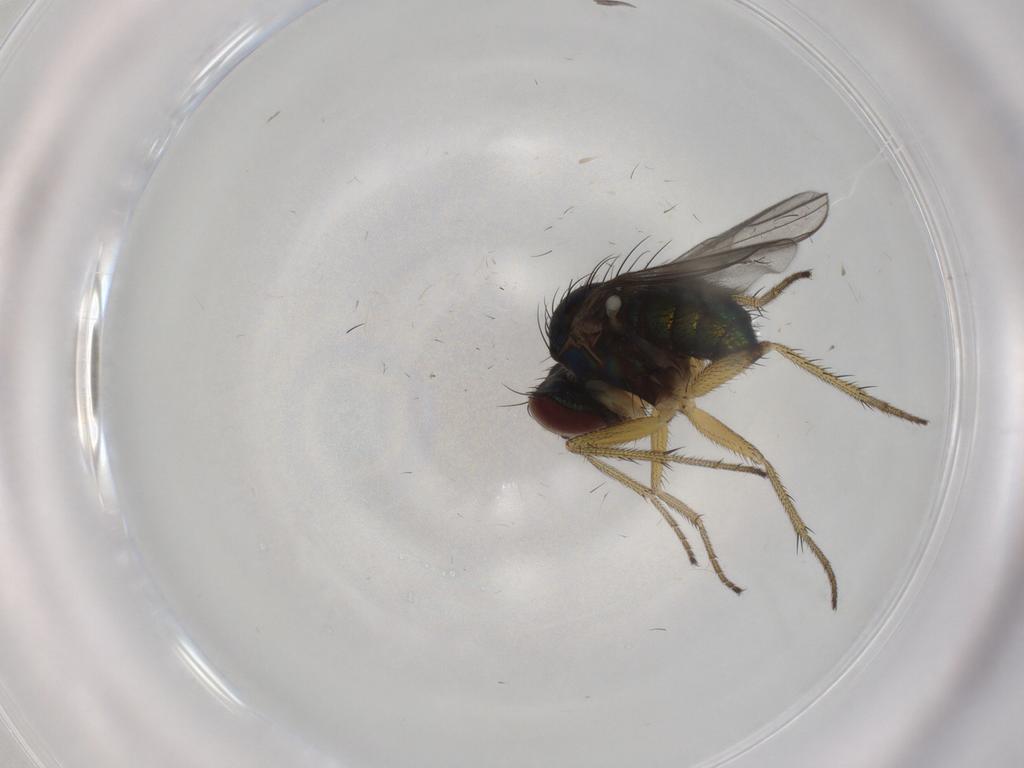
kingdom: Animalia
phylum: Arthropoda
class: Insecta
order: Diptera
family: Dolichopodidae
